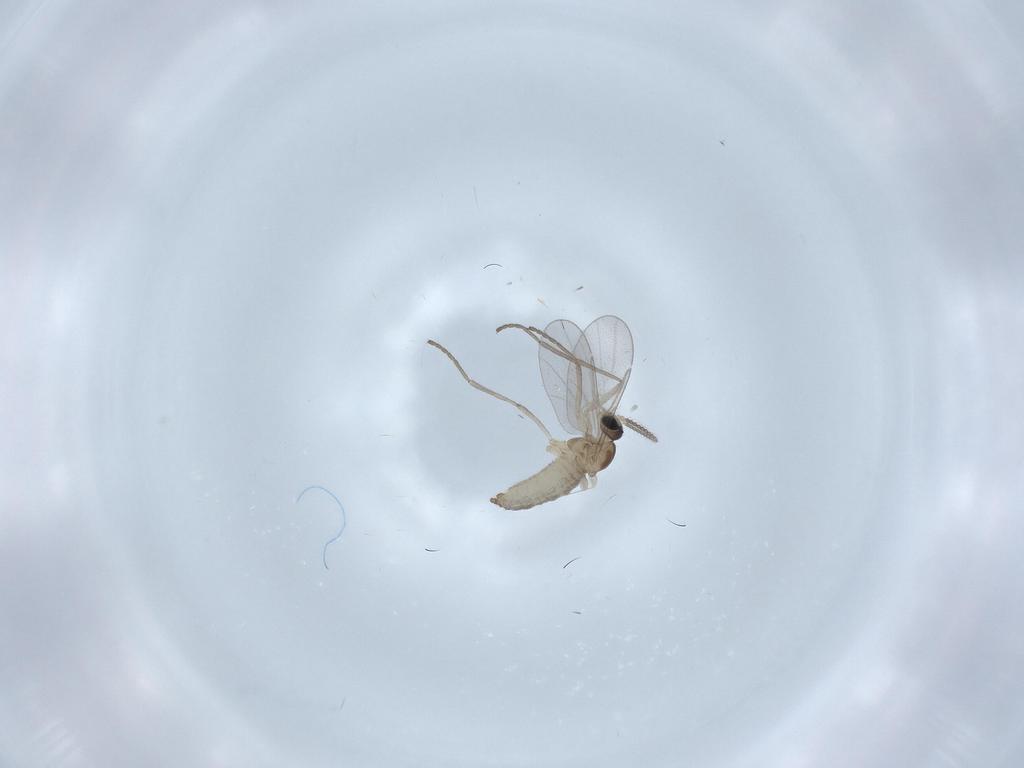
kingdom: Animalia
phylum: Arthropoda
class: Insecta
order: Diptera
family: Cecidomyiidae
